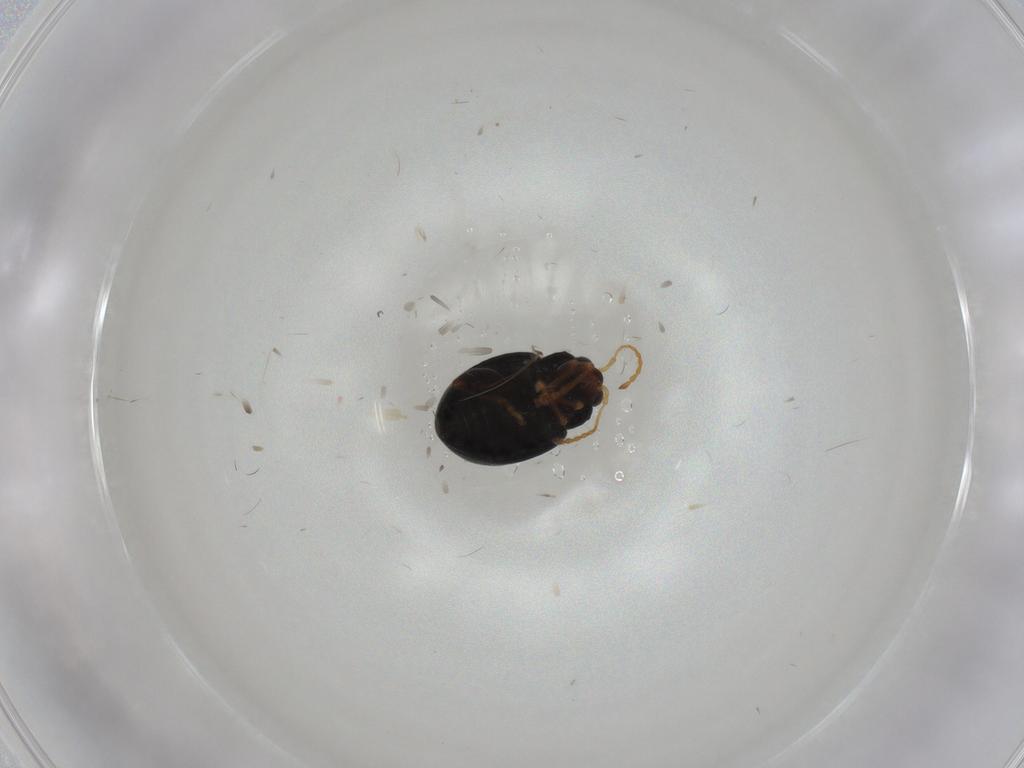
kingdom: Animalia
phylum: Arthropoda
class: Insecta
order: Coleoptera
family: Chrysomelidae
